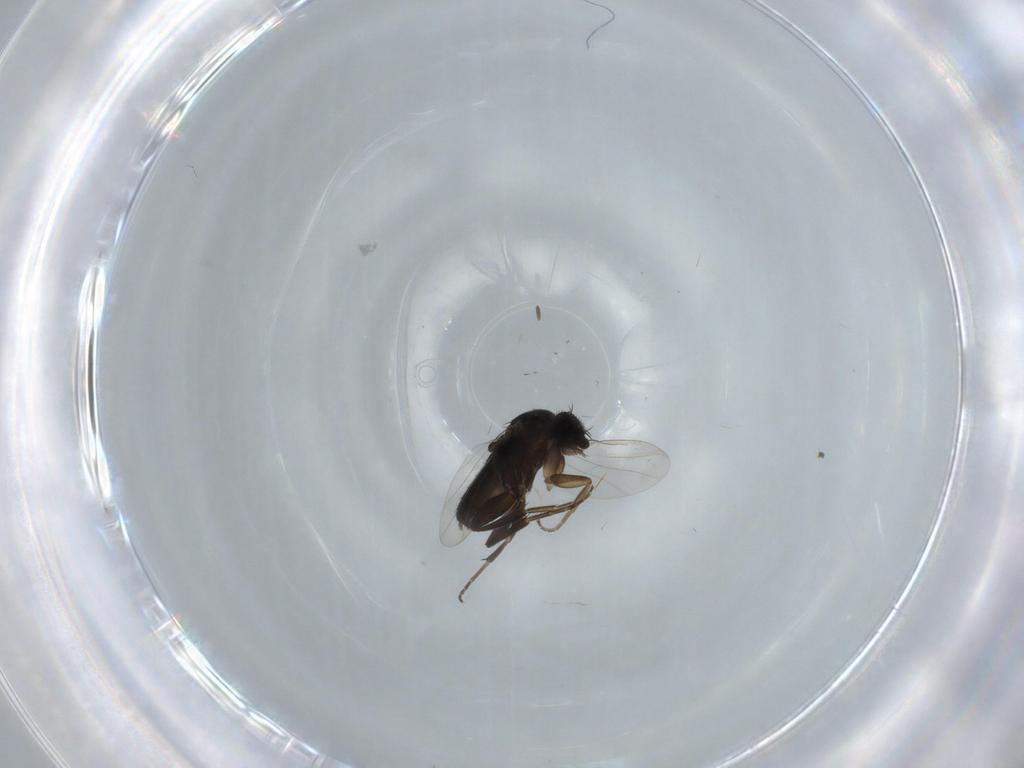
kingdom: Animalia
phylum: Arthropoda
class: Insecta
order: Diptera
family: Phoridae
